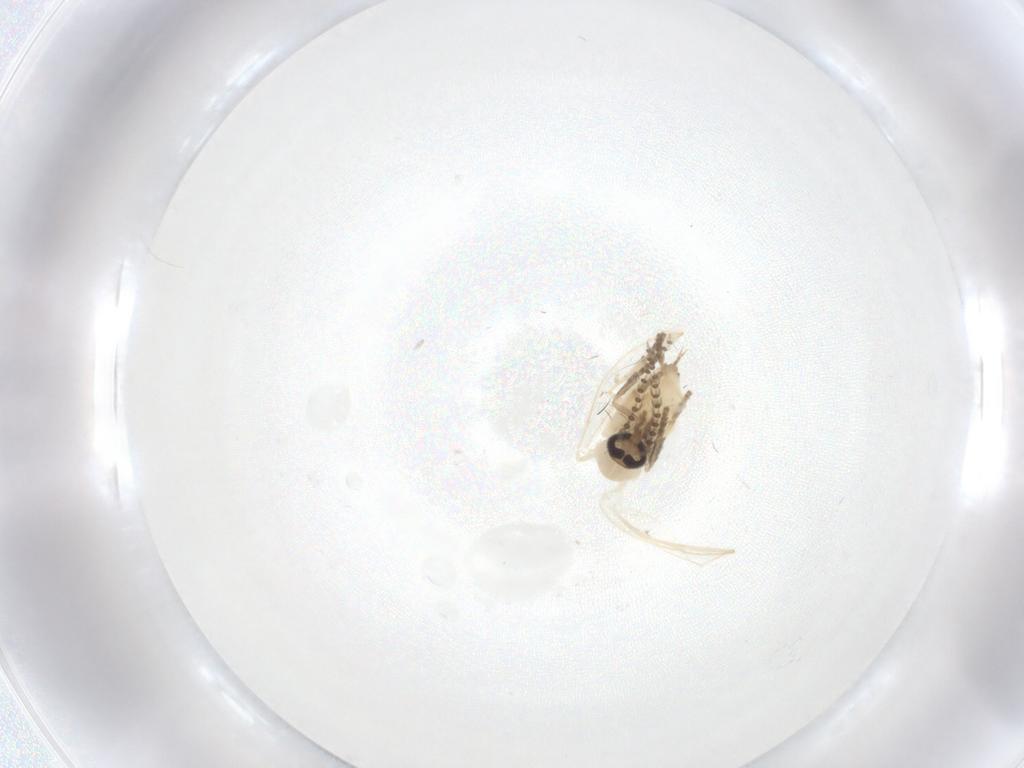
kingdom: Animalia
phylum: Arthropoda
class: Insecta
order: Diptera
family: Psychodidae
